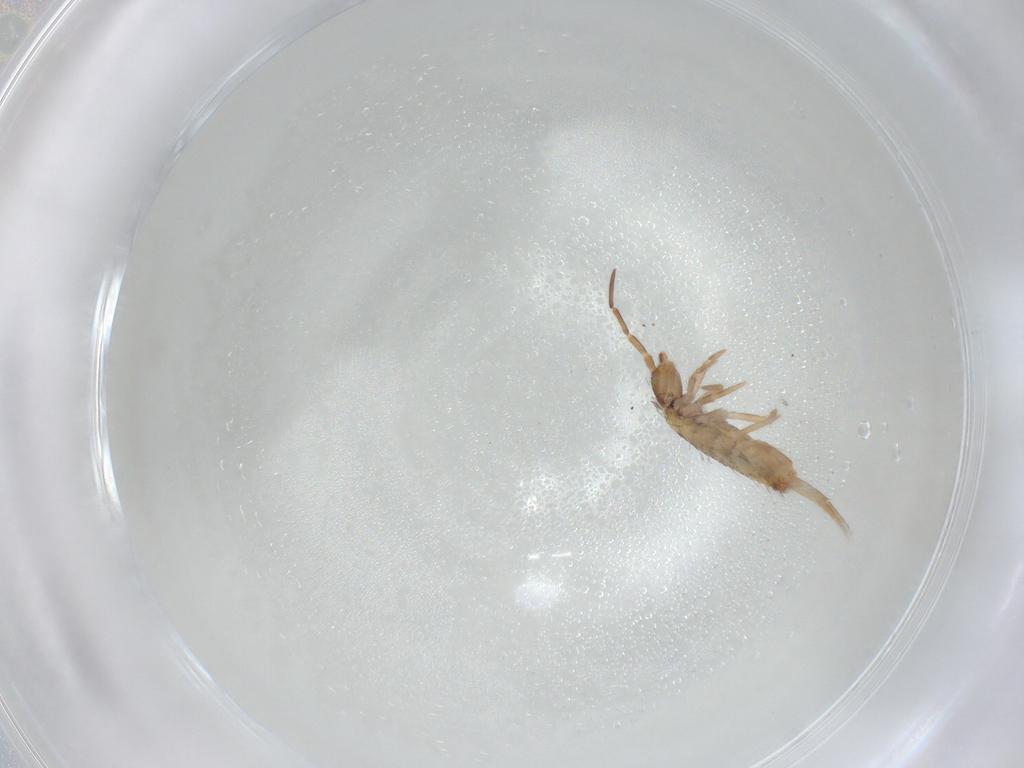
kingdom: Animalia
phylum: Arthropoda
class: Collembola
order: Entomobryomorpha
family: Entomobryidae
